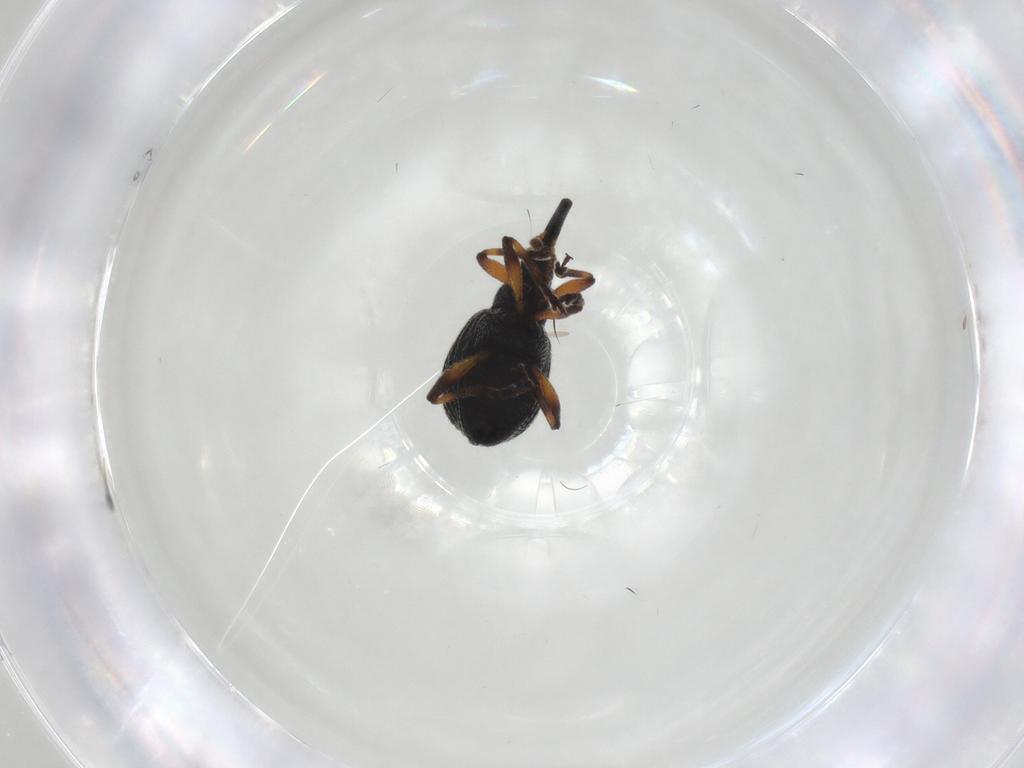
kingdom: Animalia
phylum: Arthropoda
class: Insecta
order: Coleoptera
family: Brentidae
